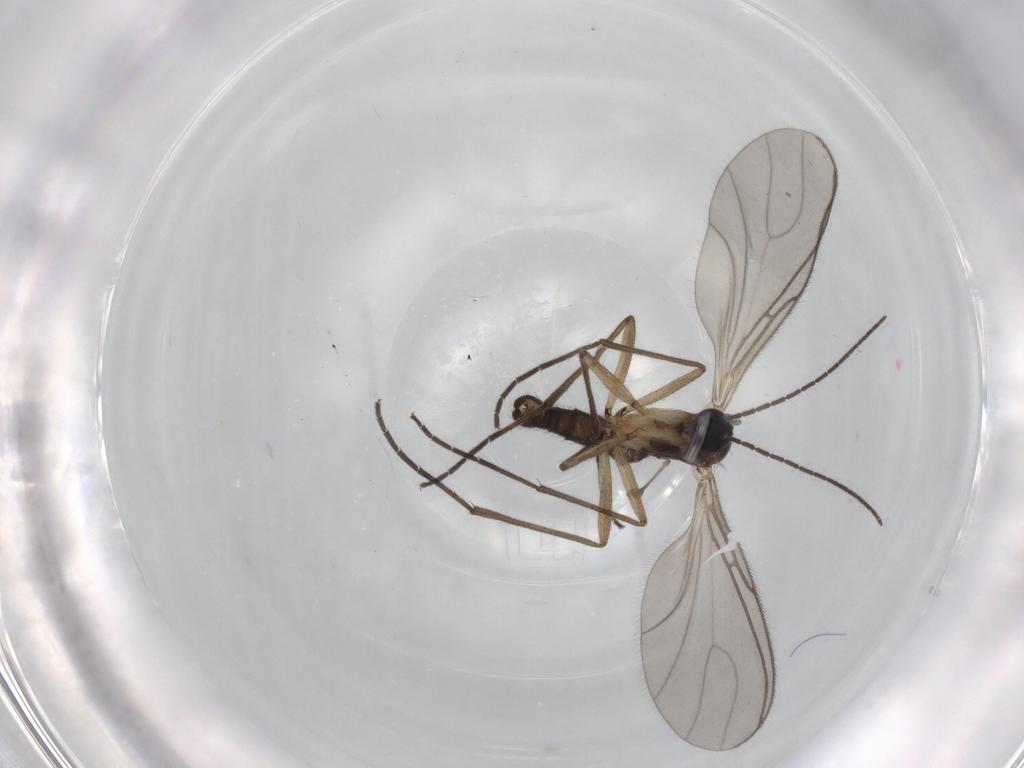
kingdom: Animalia
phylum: Arthropoda
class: Insecta
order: Diptera
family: Sciaridae
